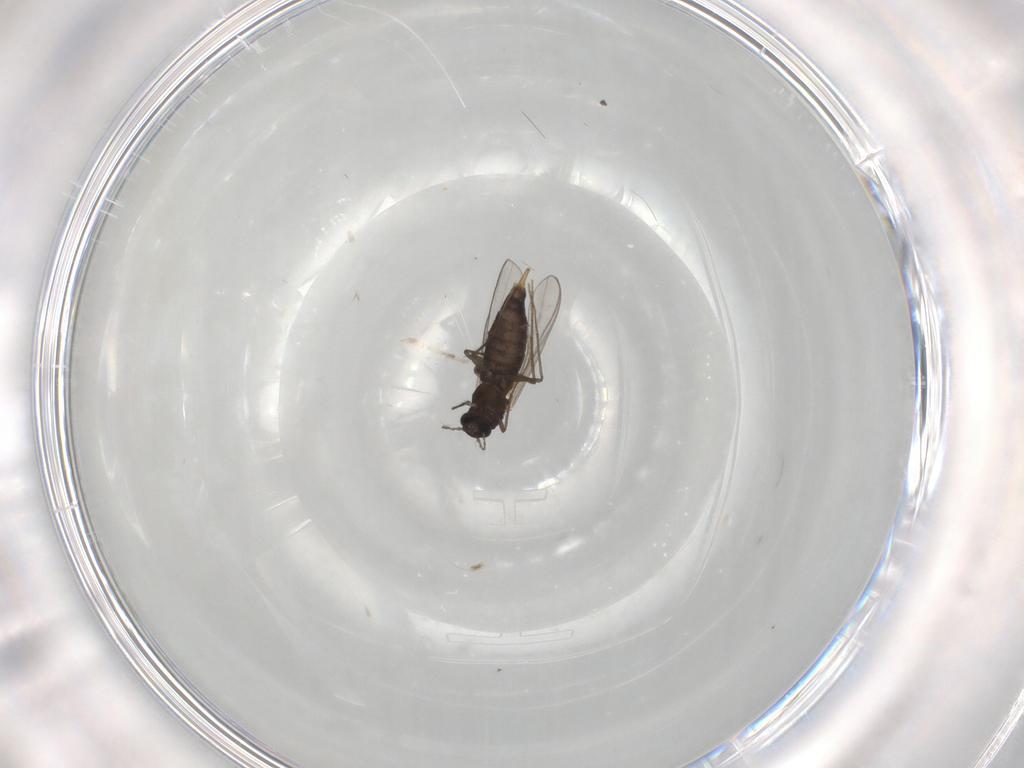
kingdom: Animalia
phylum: Arthropoda
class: Insecta
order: Diptera
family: Chironomidae
